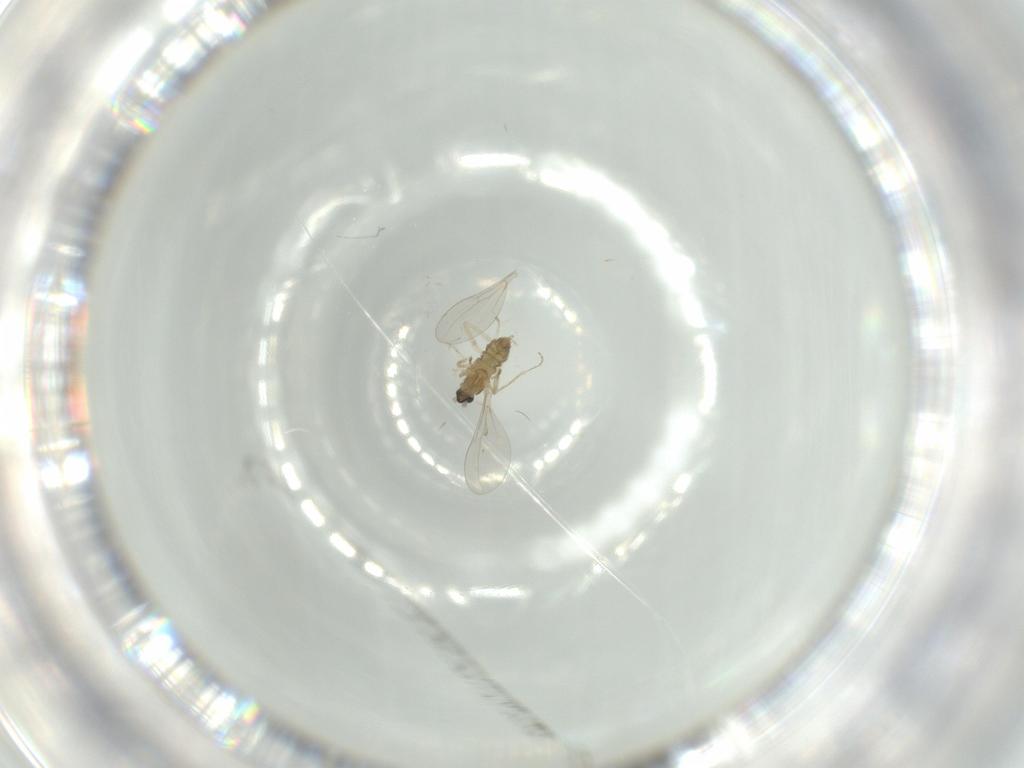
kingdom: Animalia
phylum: Arthropoda
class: Insecta
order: Diptera
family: Cecidomyiidae
